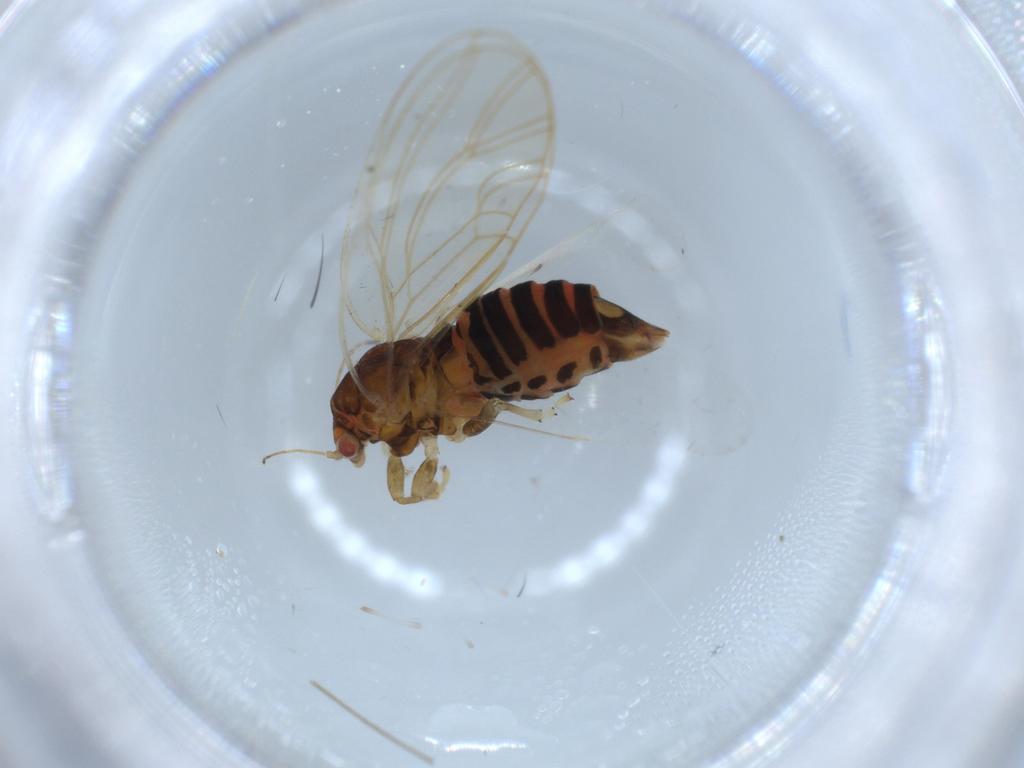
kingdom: Animalia
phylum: Arthropoda
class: Insecta
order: Hemiptera
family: Aleyrodidae
